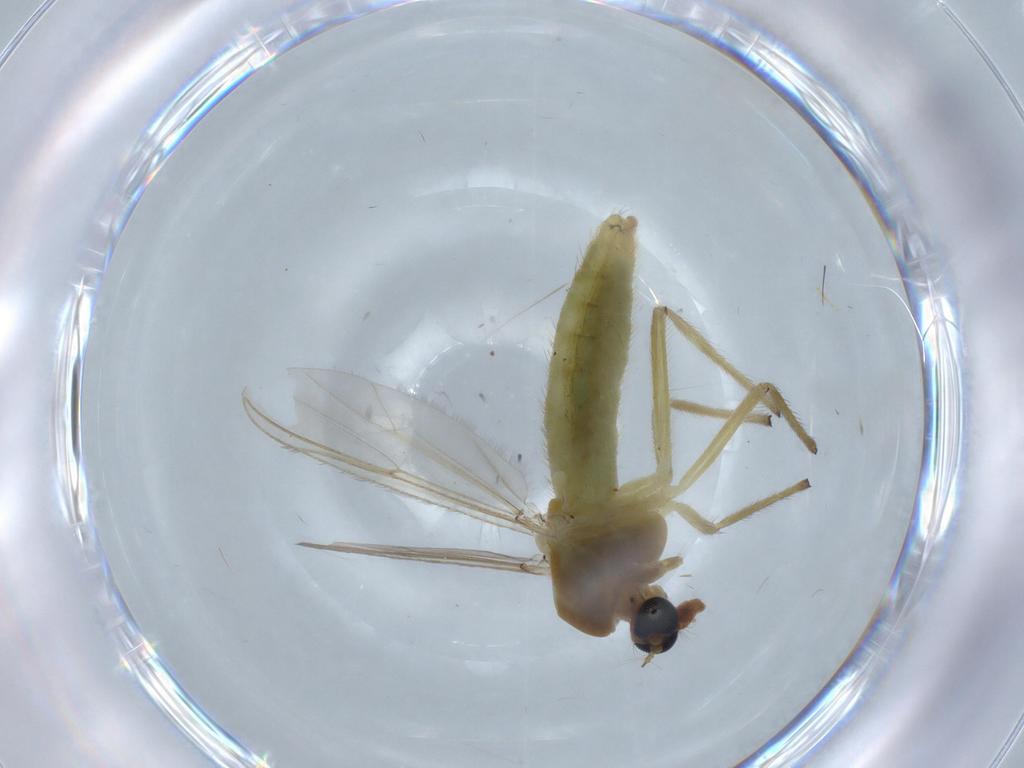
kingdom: Animalia
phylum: Arthropoda
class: Insecta
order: Diptera
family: Chironomidae
